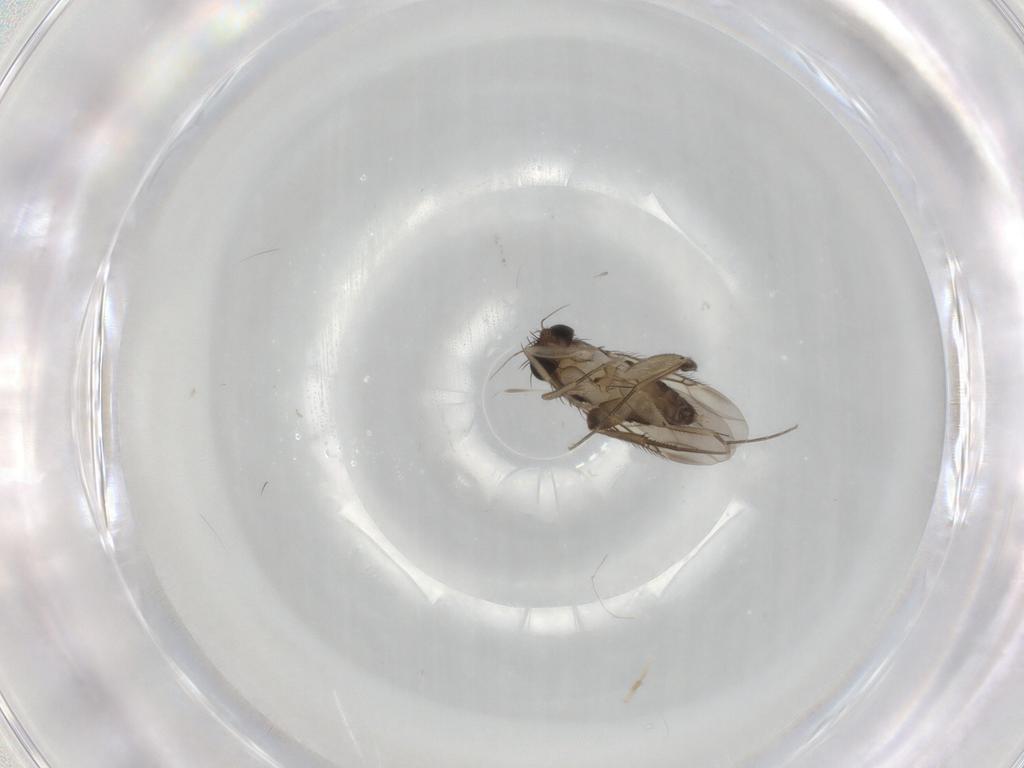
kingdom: Animalia
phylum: Arthropoda
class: Insecta
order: Diptera
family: Phoridae
